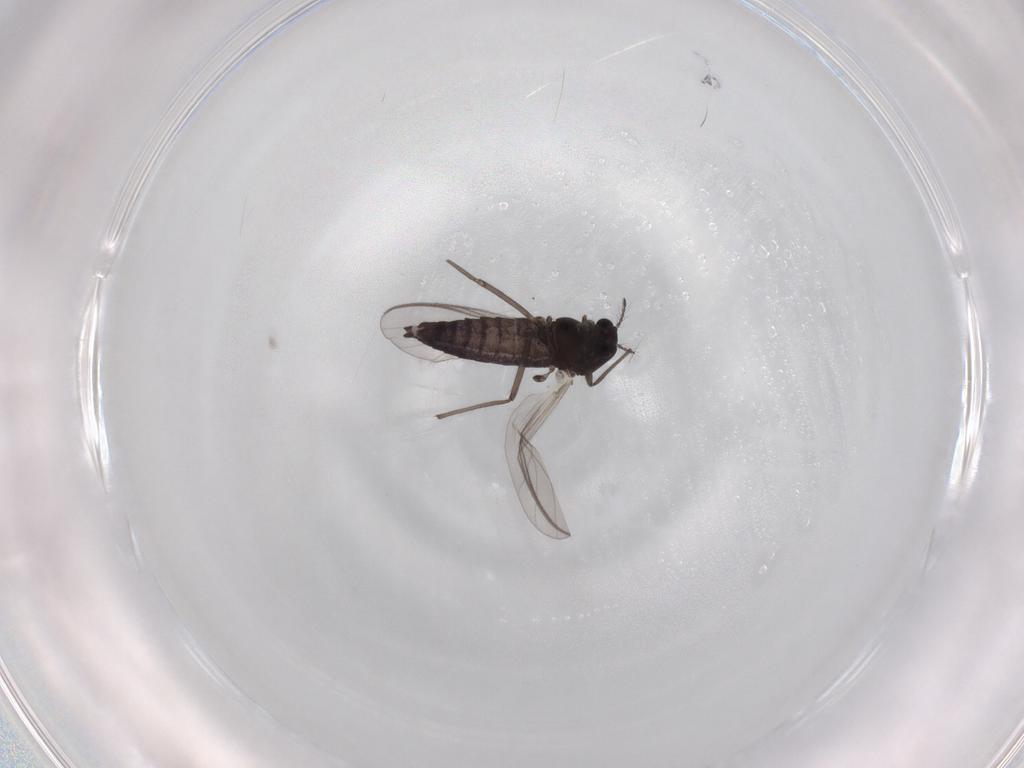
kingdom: Animalia
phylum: Arthropoda
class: Insecta
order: Diptera
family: Chironomidae
